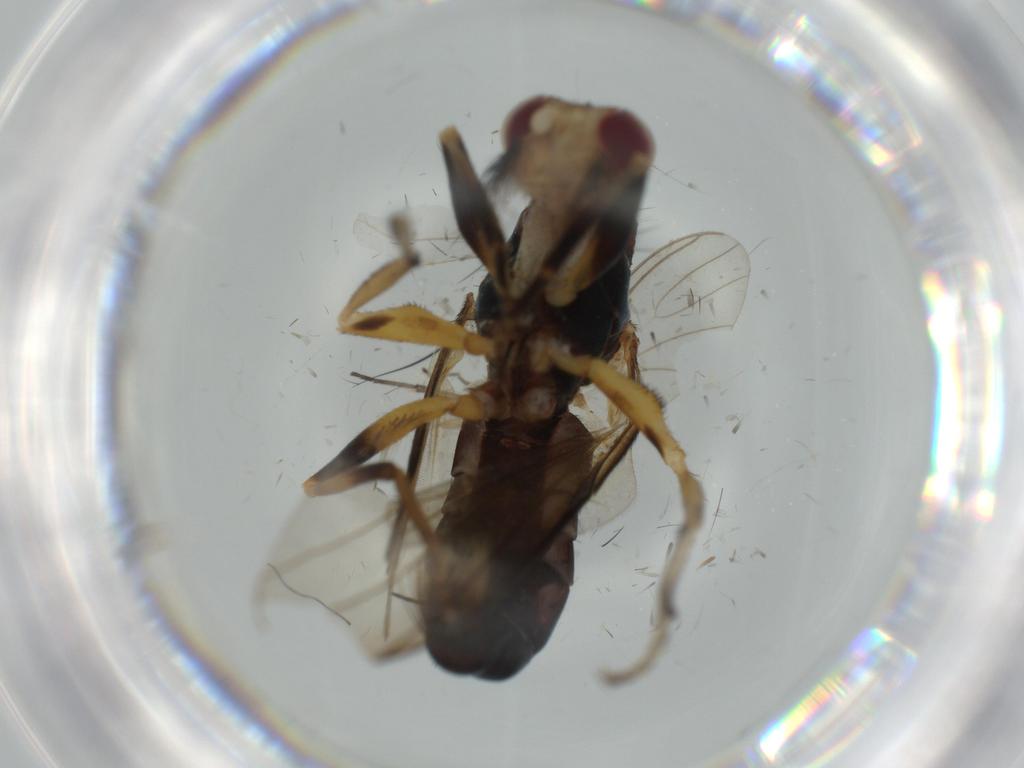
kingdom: Animalia
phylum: Arthropoda
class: Insecta
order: Diptera
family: Piophilidae
